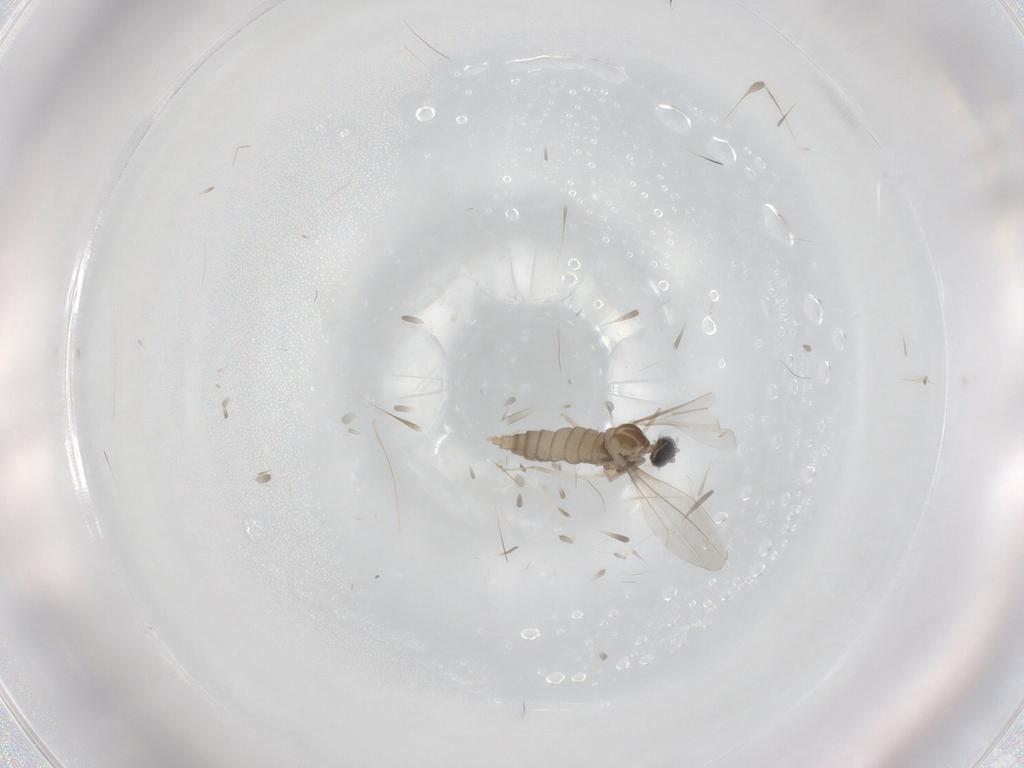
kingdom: Animalia
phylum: Arthropoda
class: Insecta
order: Diptera
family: Cecidomyiidae
